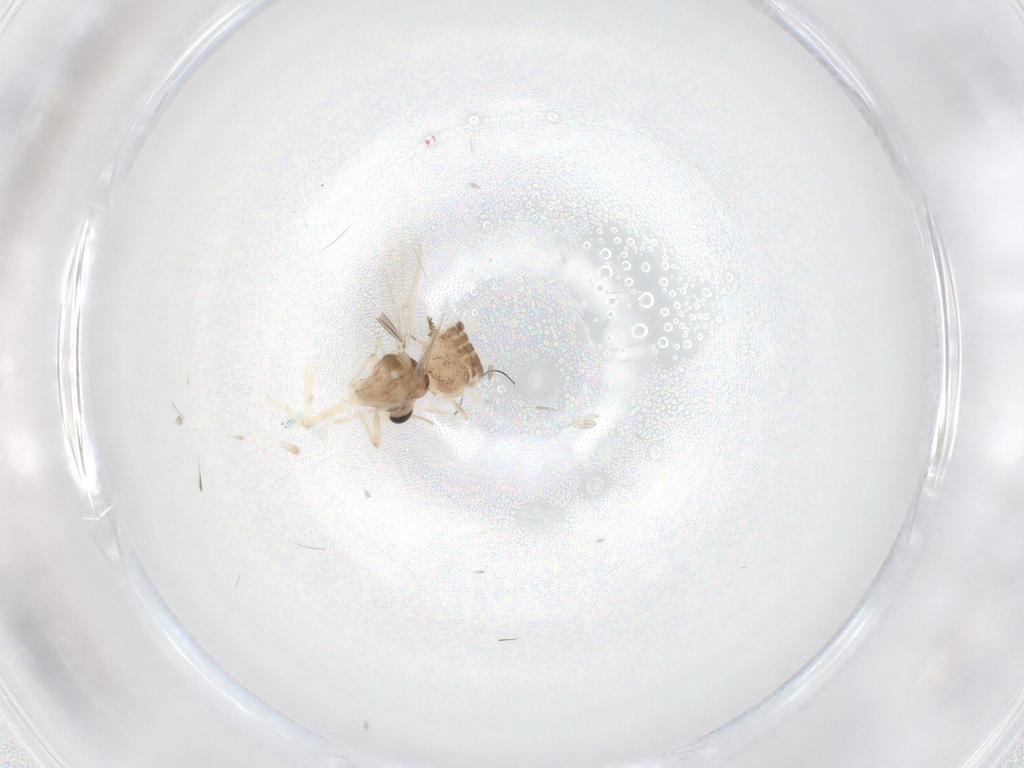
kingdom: Animalia
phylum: Arthropoda
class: Insecta
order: Diptera
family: Chironomidae
